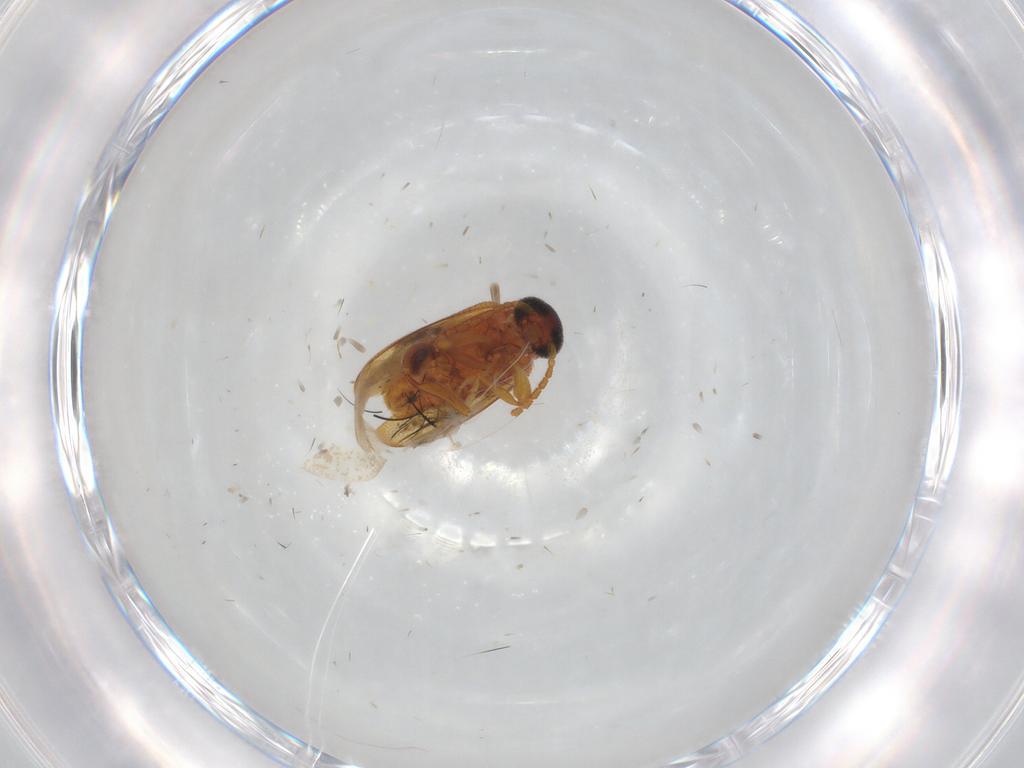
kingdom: Animalia
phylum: Arthropoda
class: Insecta
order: Coleoptera
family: Aderidae
